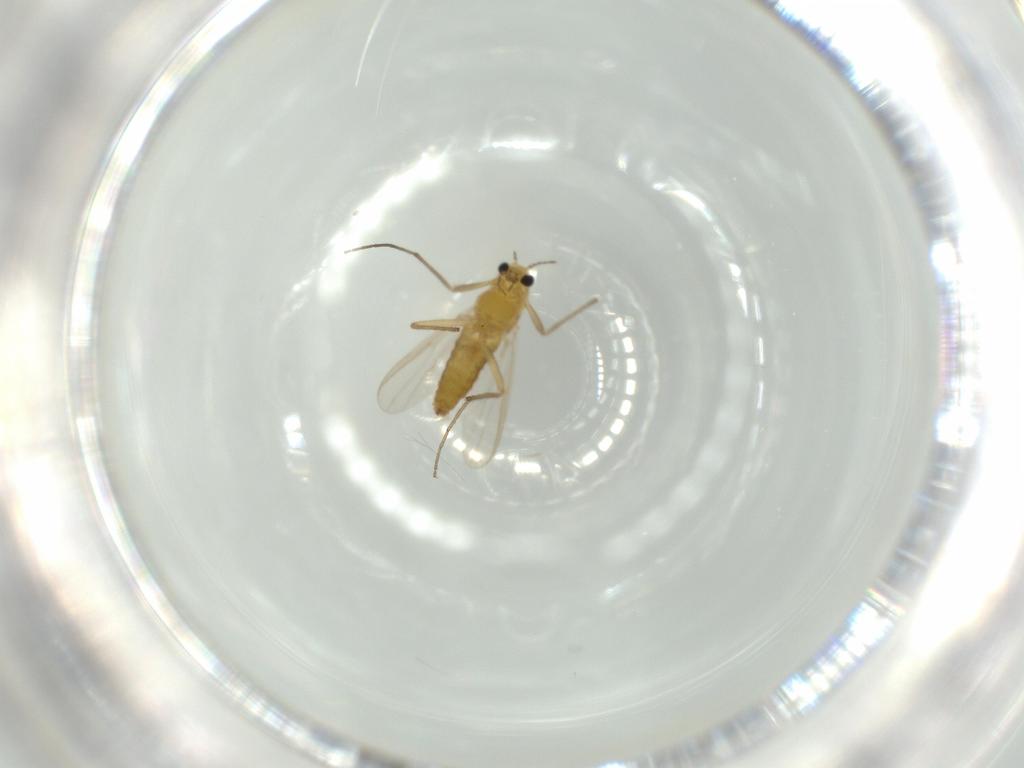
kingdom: Animalia
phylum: Arthropoda
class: Insecta
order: Diptera
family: Chironomidae
